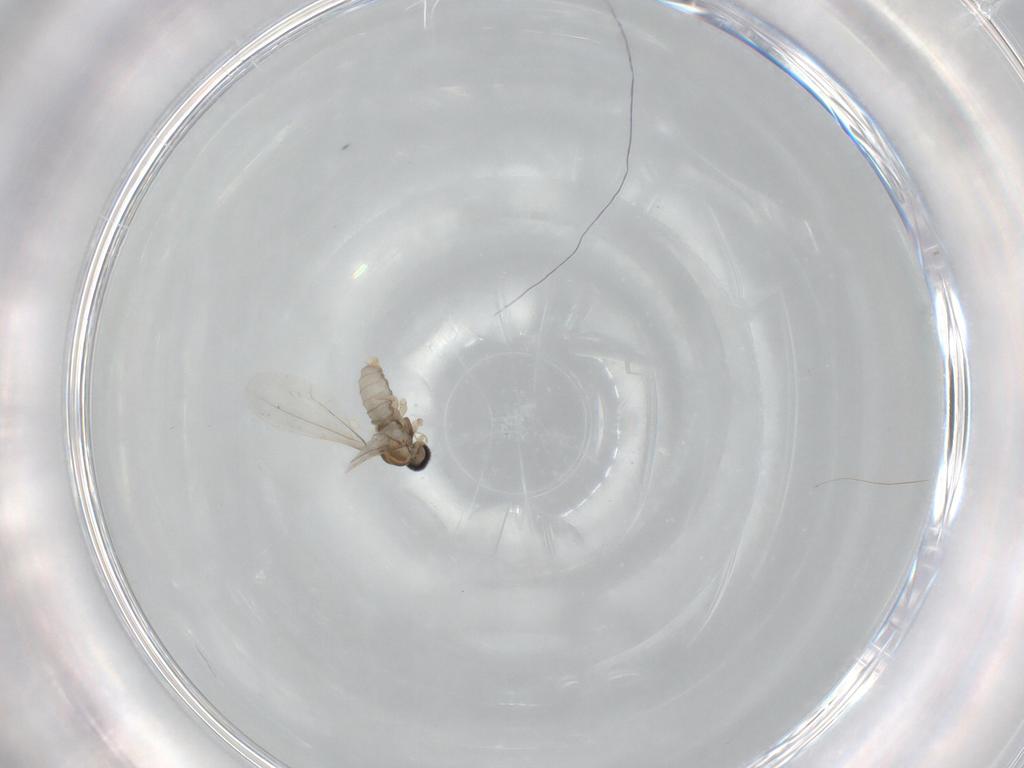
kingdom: Animalia
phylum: Arthropoda
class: Insecta
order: Diptera
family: Cecidomyiidae
